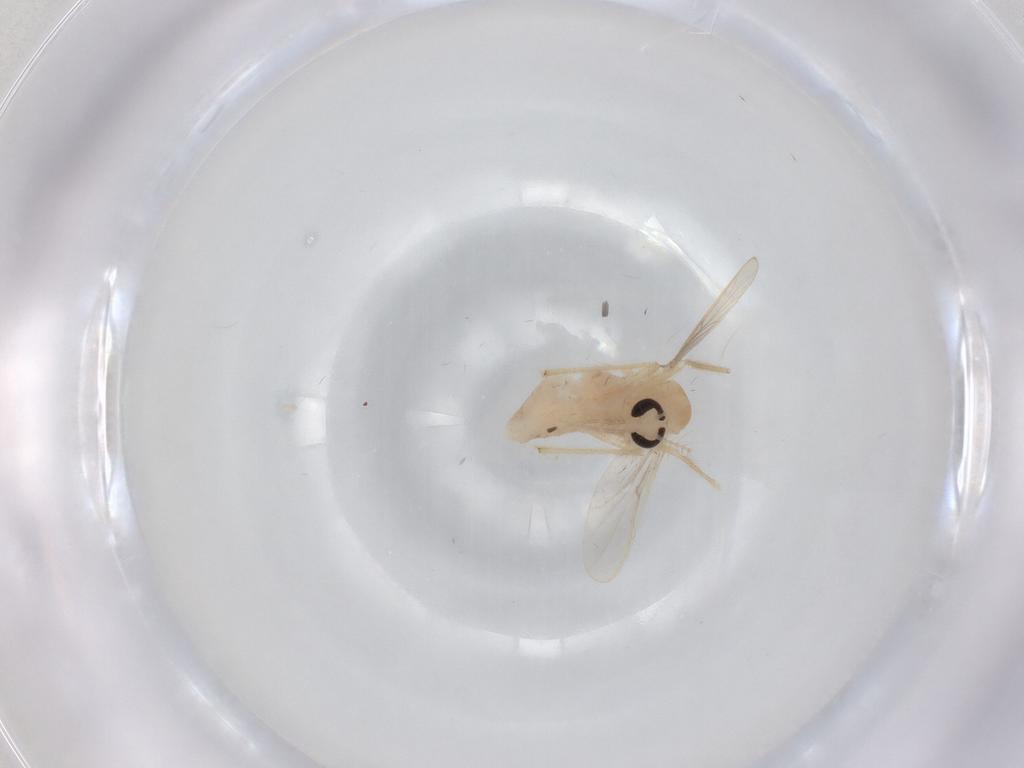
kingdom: Animalia
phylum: Arthropoda
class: Insecta
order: Diptera
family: Chironomidae
